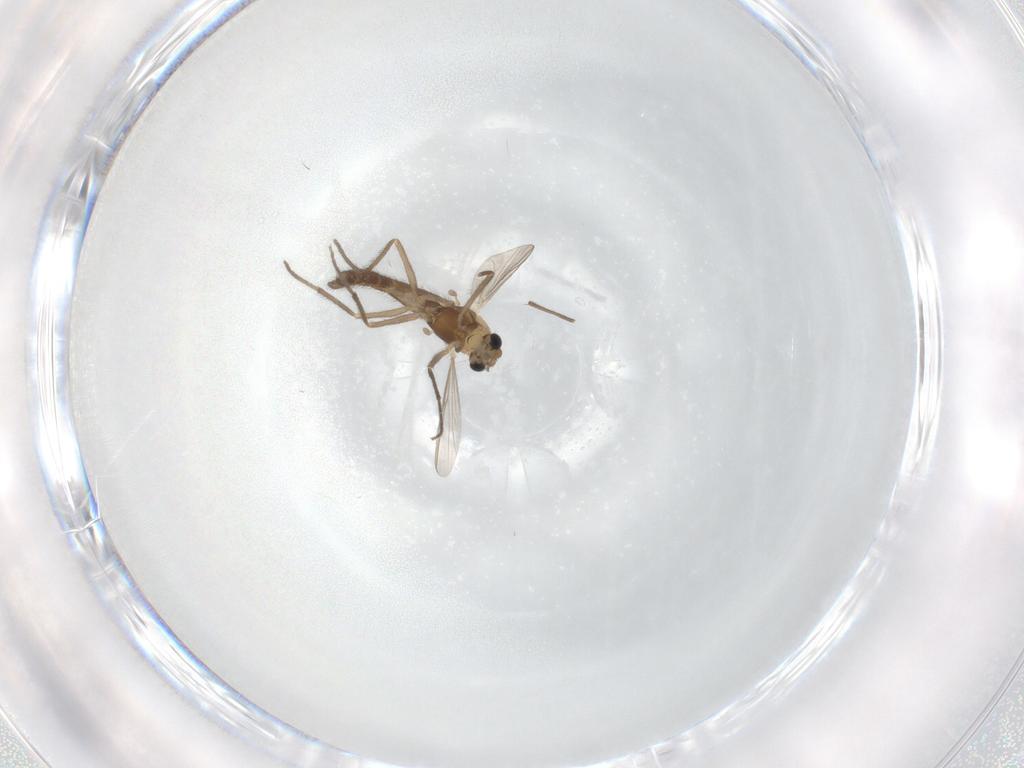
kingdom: Animalia
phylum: Arthropoda
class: Insecta
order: Diptera
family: Chironomidae
